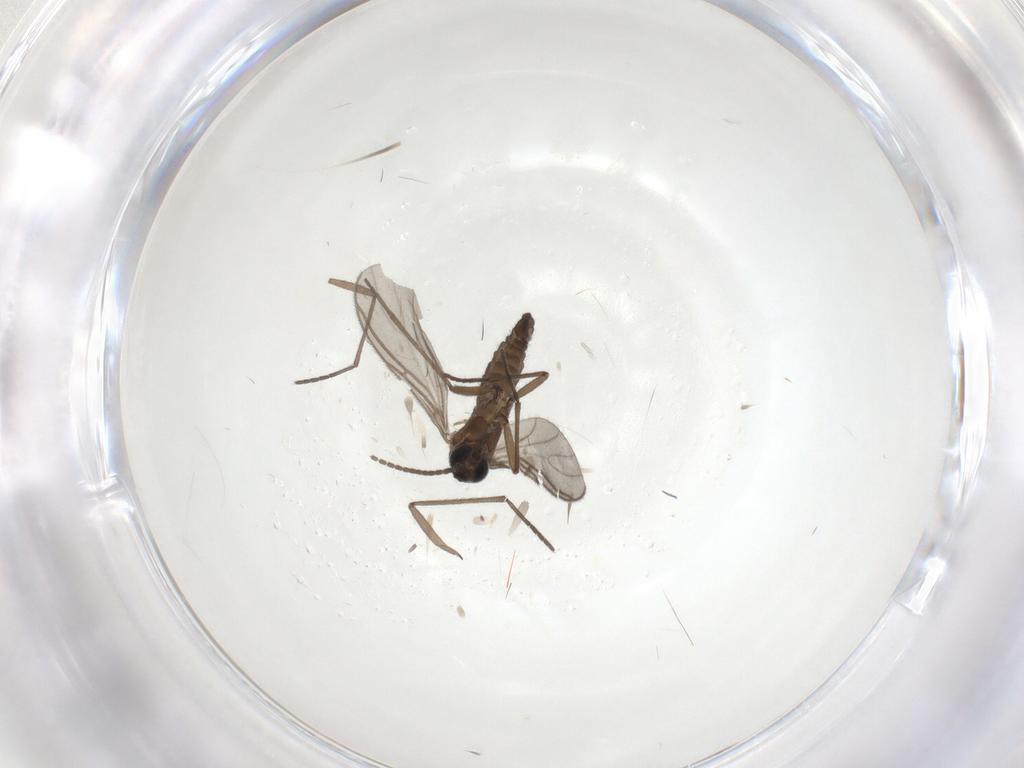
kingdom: Animalia
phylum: Arthropoda
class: Insecta
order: Diptera
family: Sciaridae
